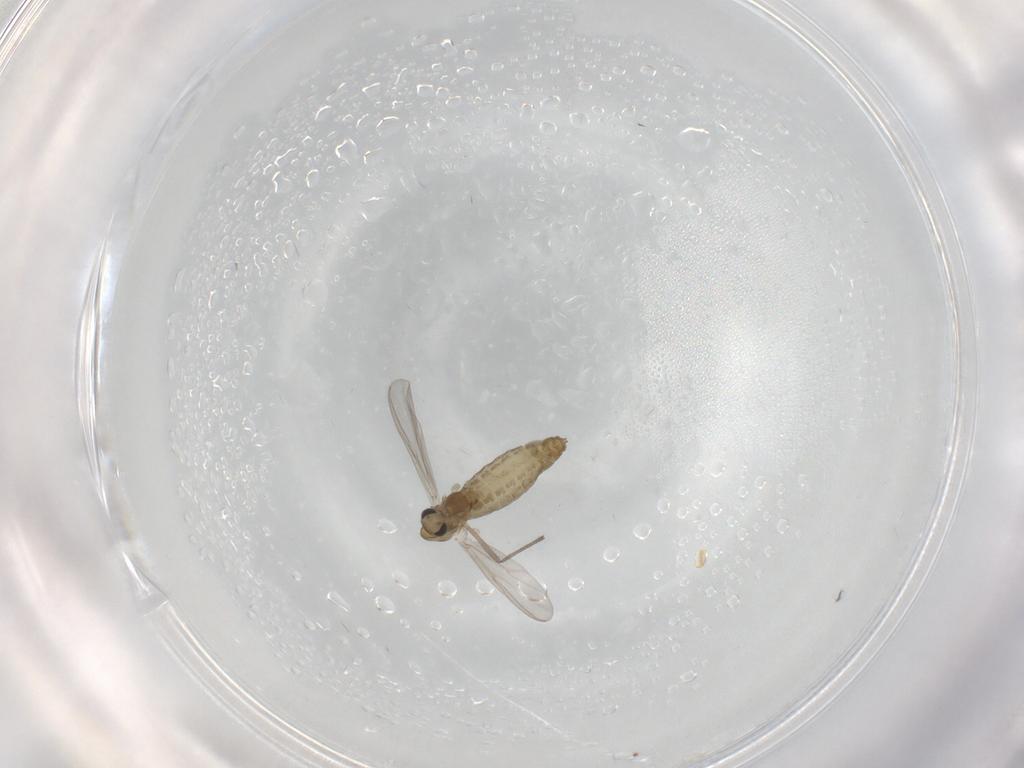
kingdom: Animalia
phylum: Arthropoda
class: Insecta
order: Diptera
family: Chironomidae
